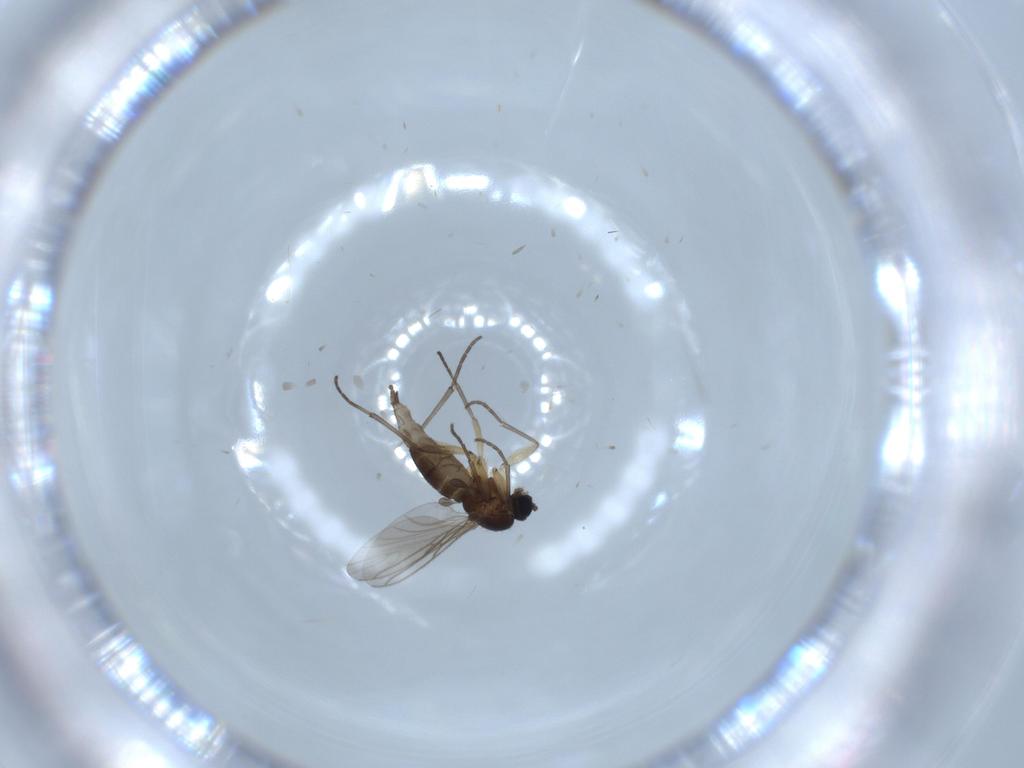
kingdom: Animalia
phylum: Arthropoda
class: Insecta
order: Diptera
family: Sciaridae
